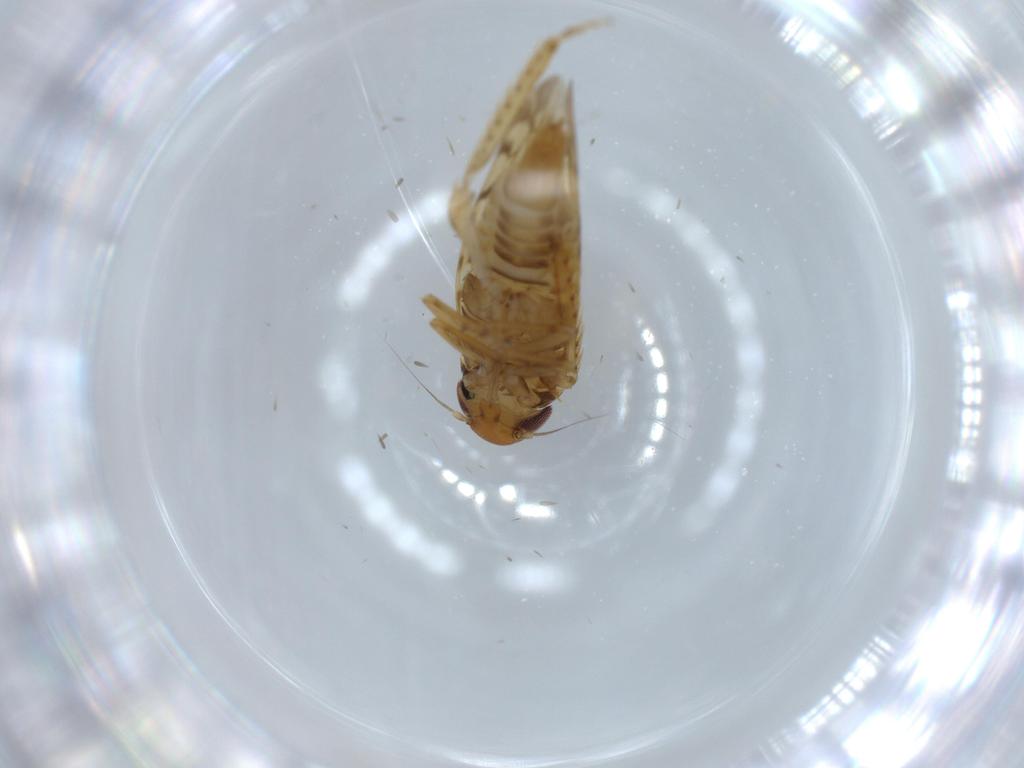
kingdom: Animalia
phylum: Arthropoda
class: Insecta
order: Hemiptera
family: Cicadellidae
